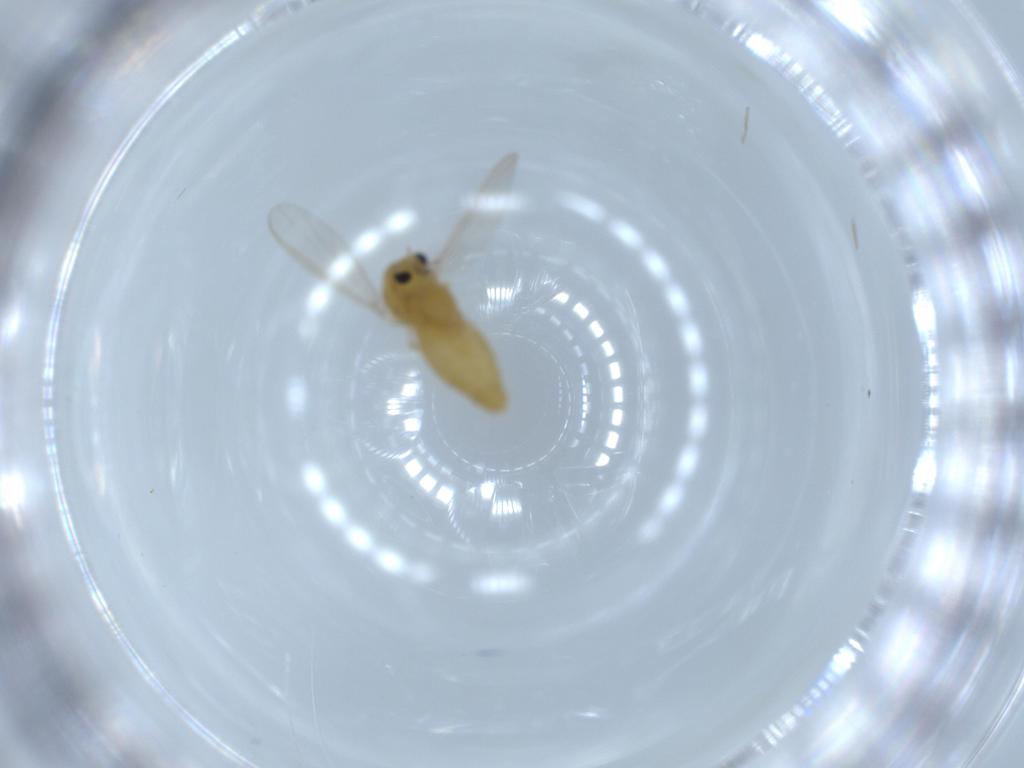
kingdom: Animalia
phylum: Arthropoda
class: Insecta
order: Diptera
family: Chironomidae
